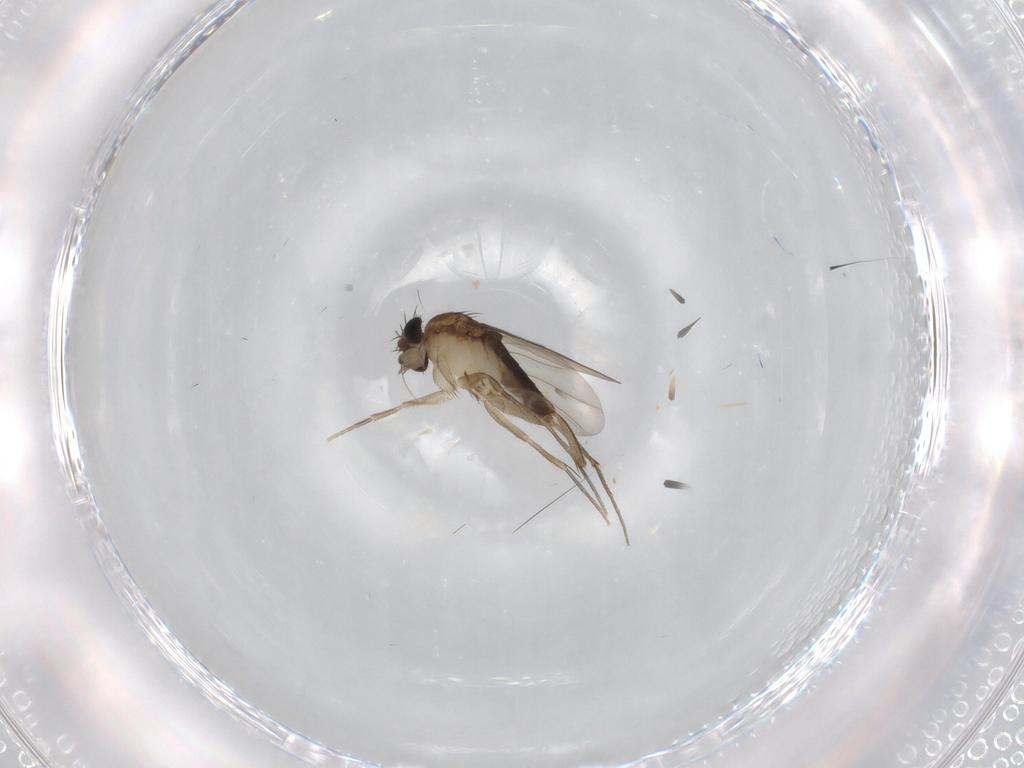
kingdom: Animalia
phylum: Arthropoda
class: Insecta
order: Diptera
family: Phoridae
